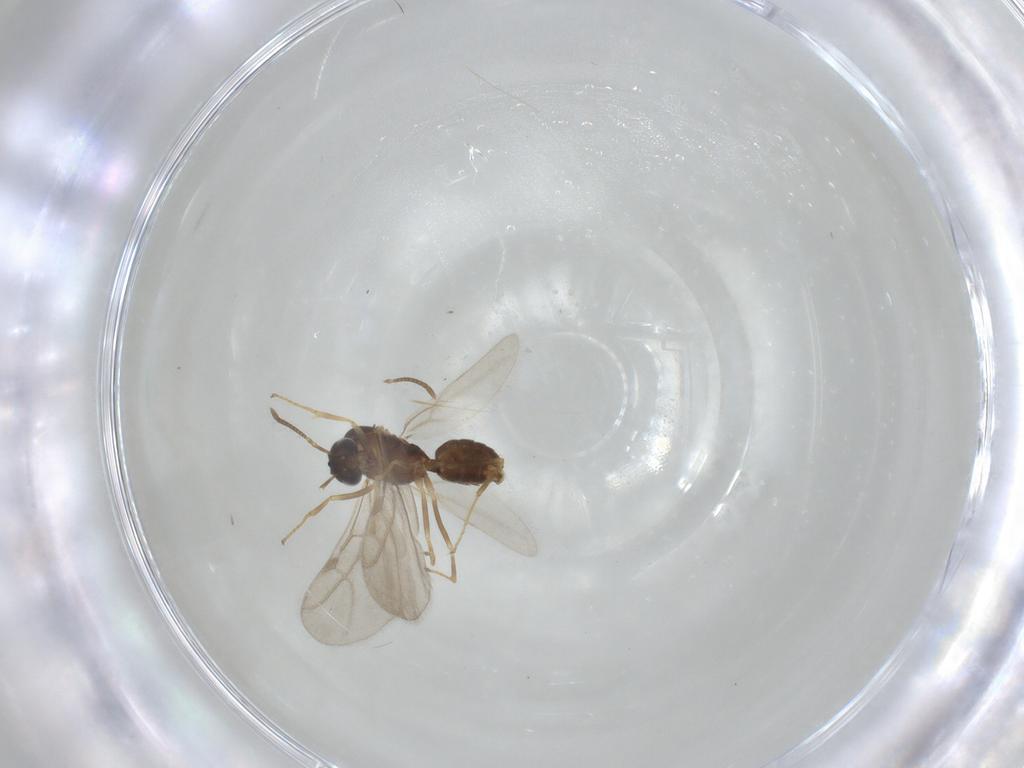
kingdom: Animalia
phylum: Arthropoda
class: Insecta
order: Hymenoptera
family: Formicidae
